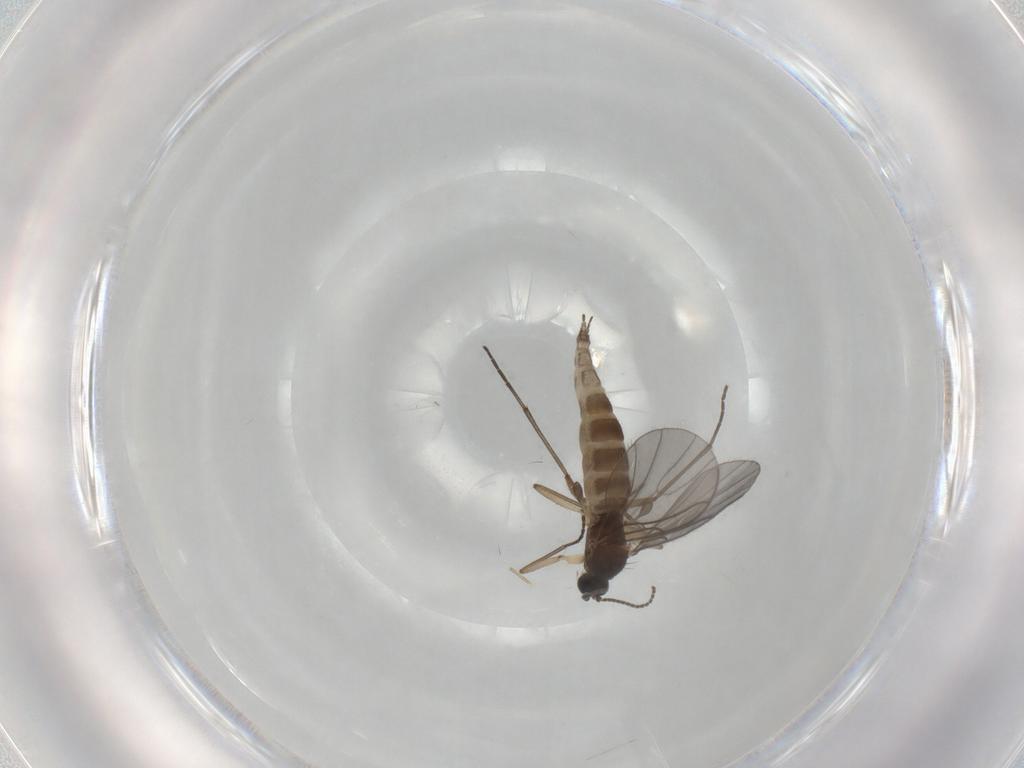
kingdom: Animalia
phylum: Arthropoda
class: Insecta
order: Diptera
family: Sciaridae
